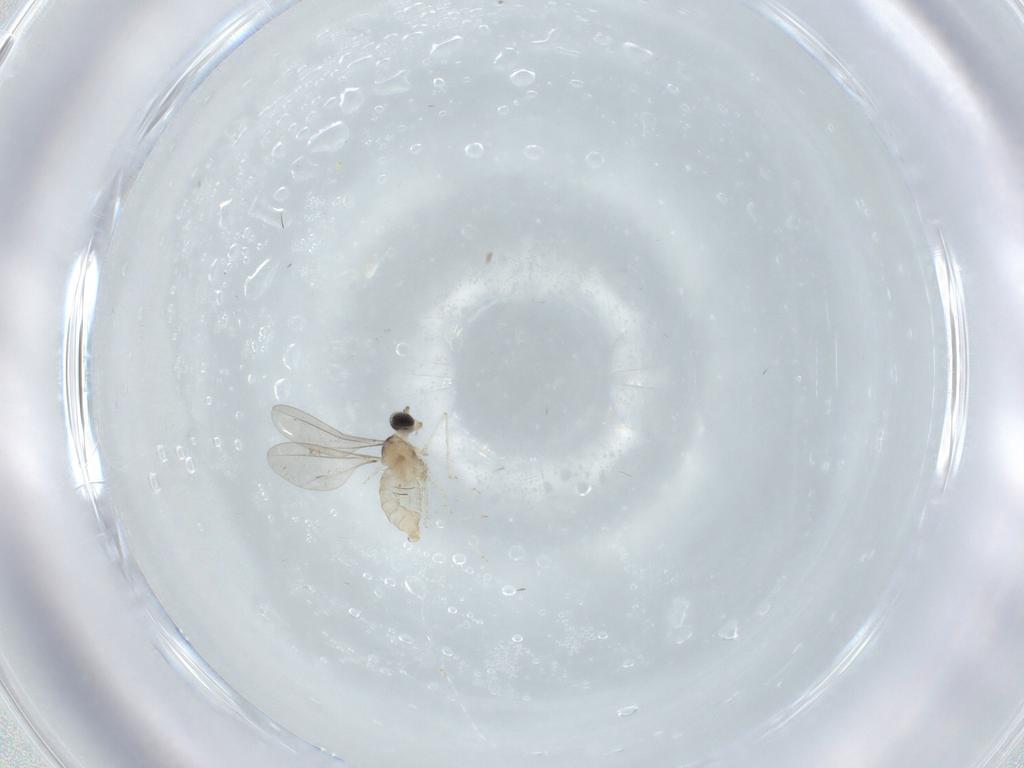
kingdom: Animalia
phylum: Arthropoda
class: Insecta
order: Diptera
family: Cecidomyiidae
